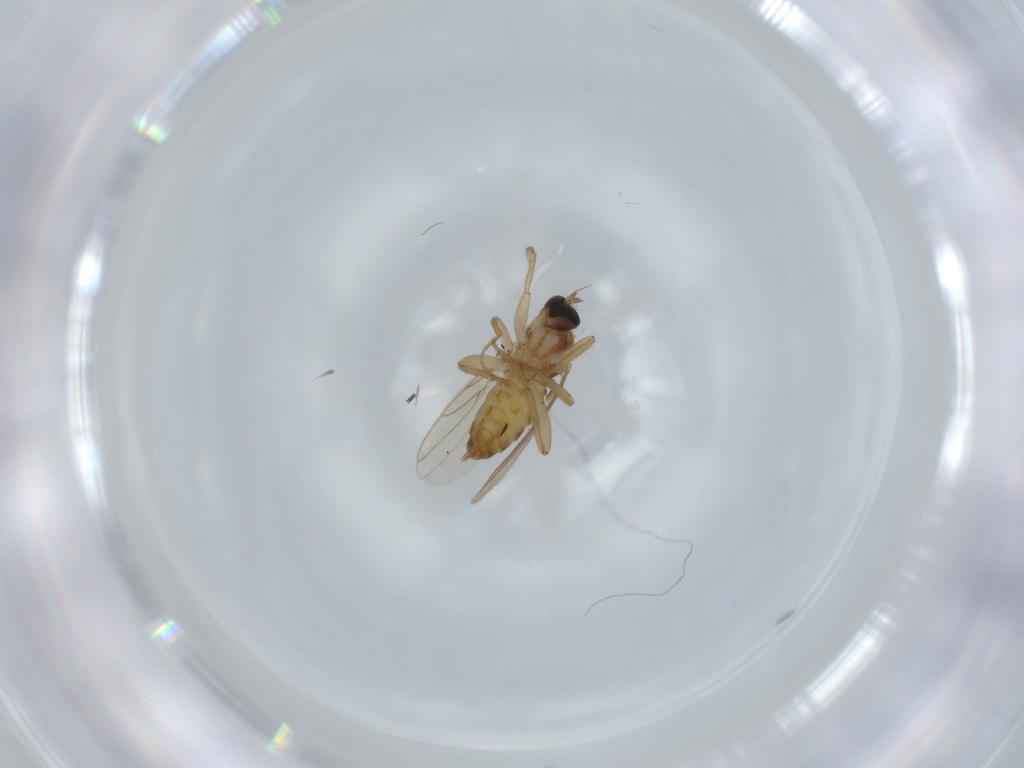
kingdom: Animalia
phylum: Arthropoda
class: Insecta
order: Diptera
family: Hybotidae
